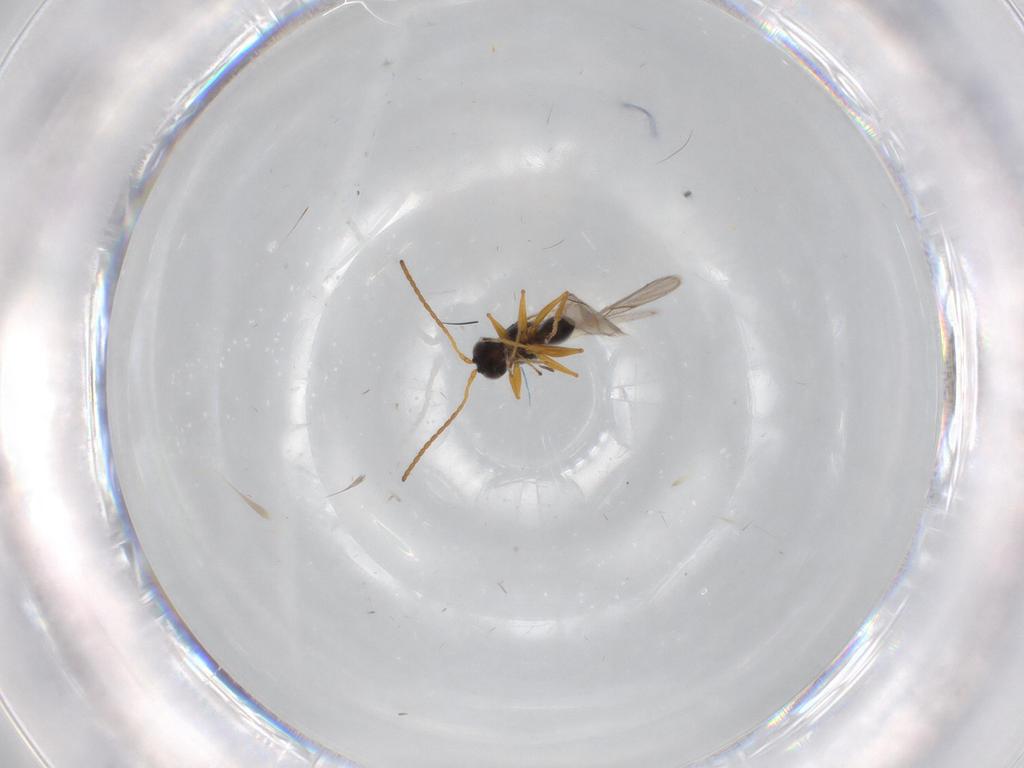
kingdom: Animalia
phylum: Arthropoda
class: Insecta
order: Hymenoptera
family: Figitidae
